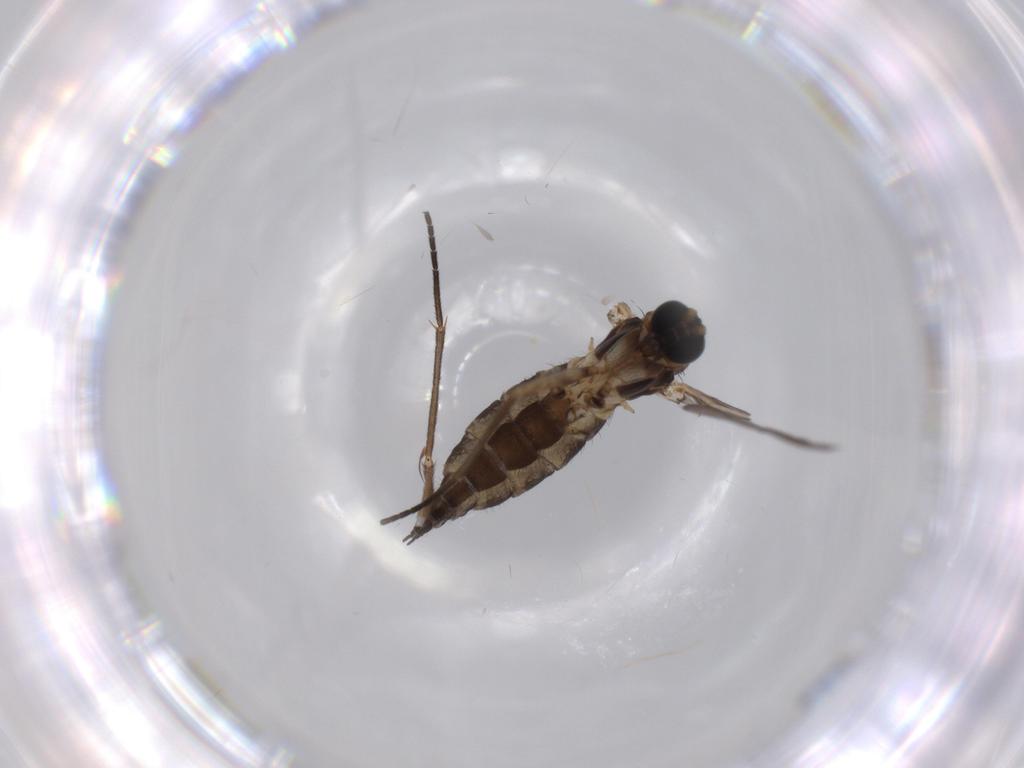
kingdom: Animalia
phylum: Arthropoda
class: Insecta
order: Diptera
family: Sciaridae
